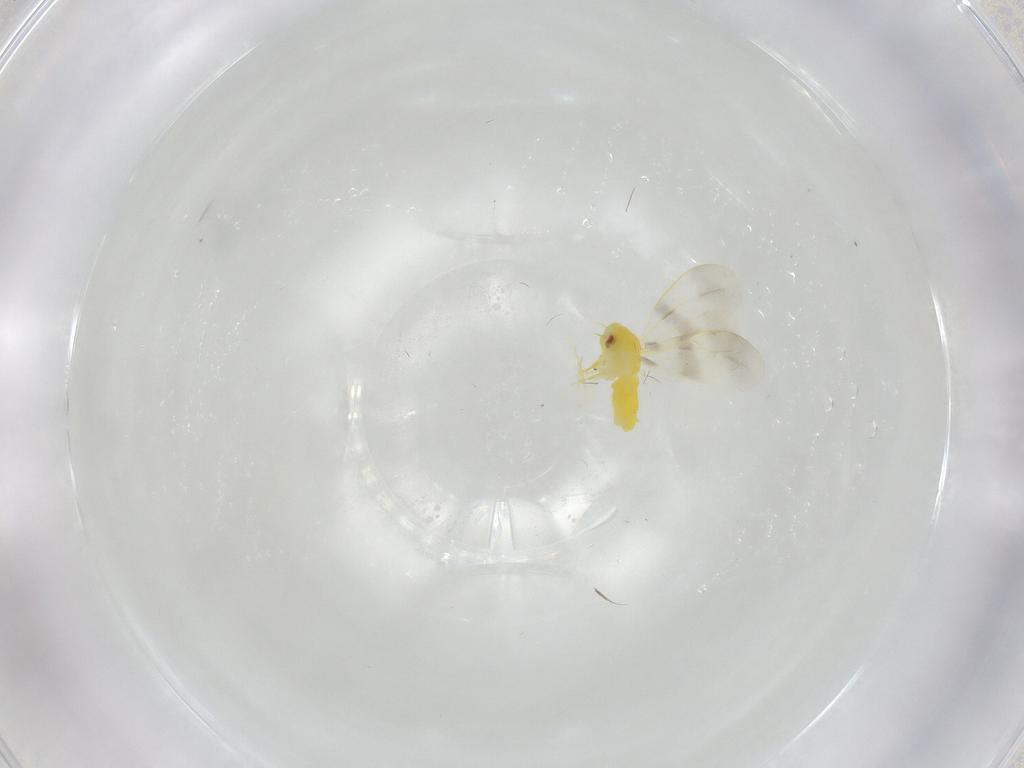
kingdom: Animalia
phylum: Arthropoda
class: Insecta
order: Hemiptera
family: Aleyrodidae
